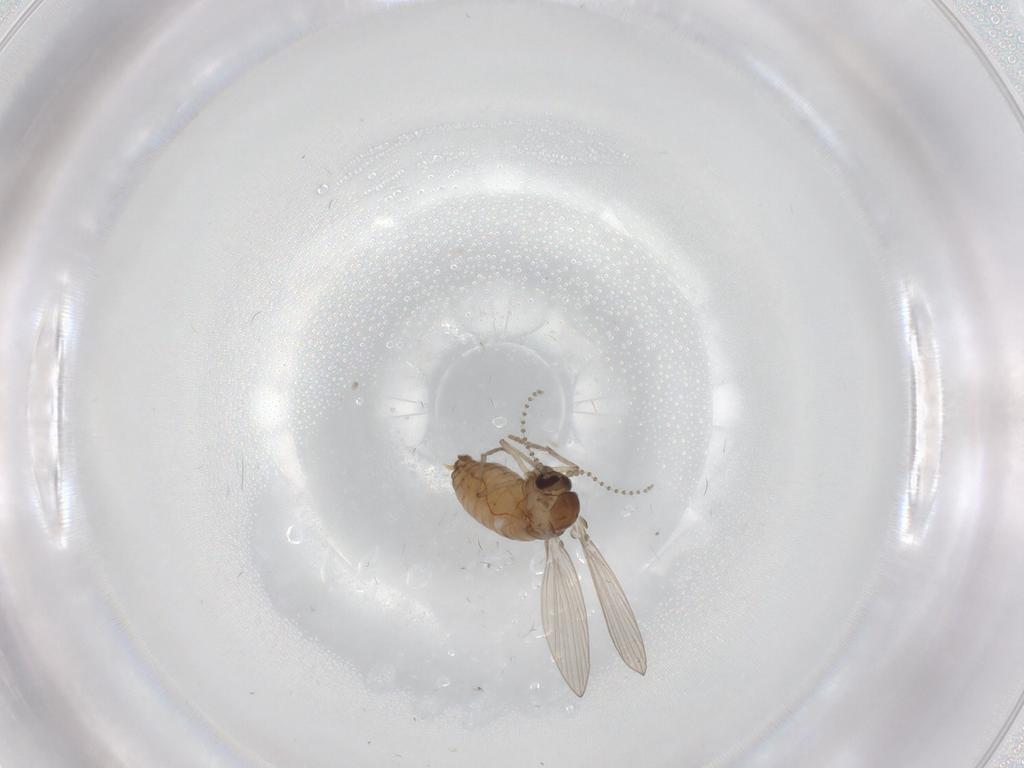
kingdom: Animalia
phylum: Arthropoda
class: Insecta
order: Diptera
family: Psychodidae
